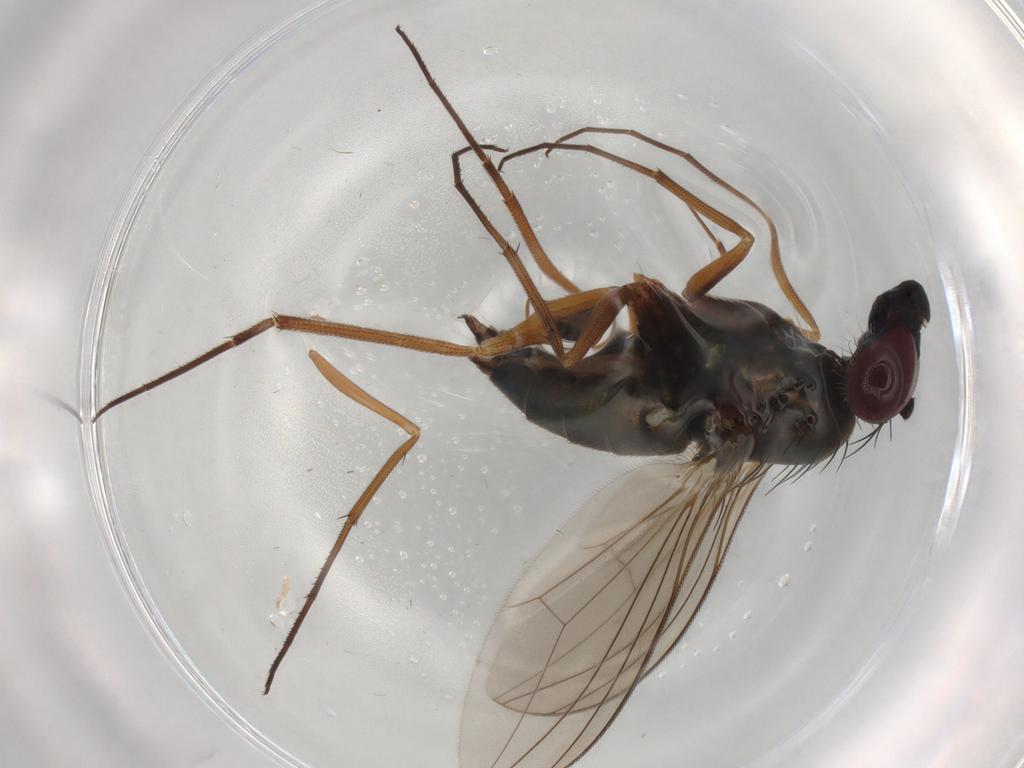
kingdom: Animalia
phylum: Arthropoda
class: Insecta
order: Diptera
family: Dolichopodidae
